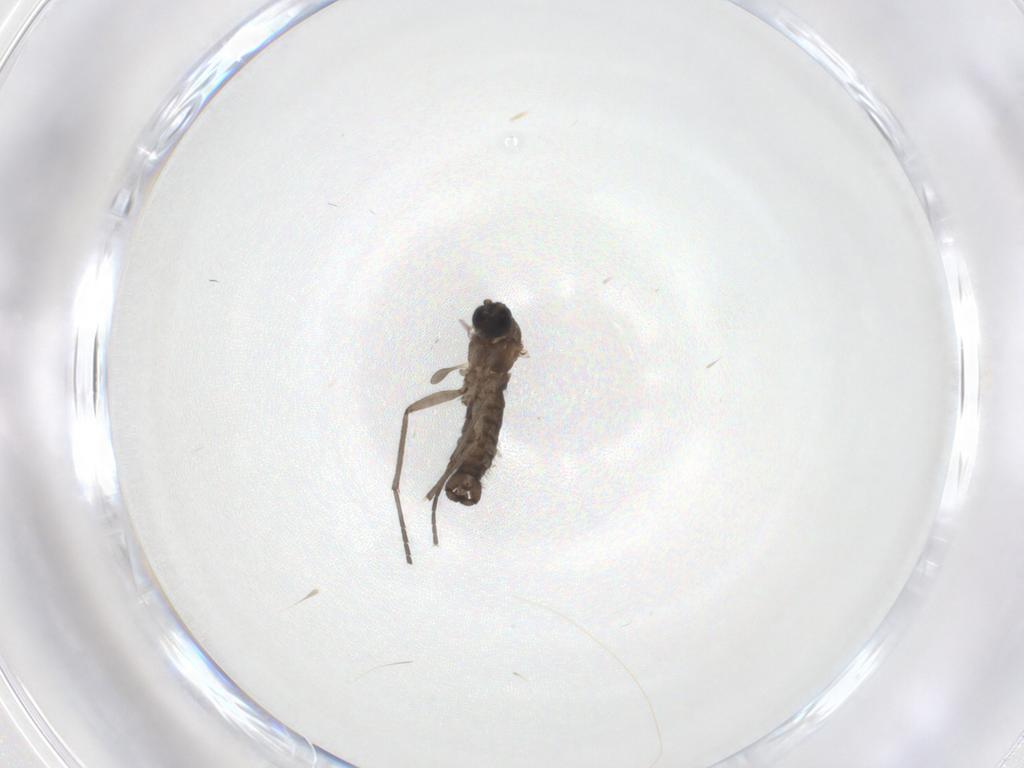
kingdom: Animalia
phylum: Arthropoda
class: Insecta
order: Diptera
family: Sciaridae
